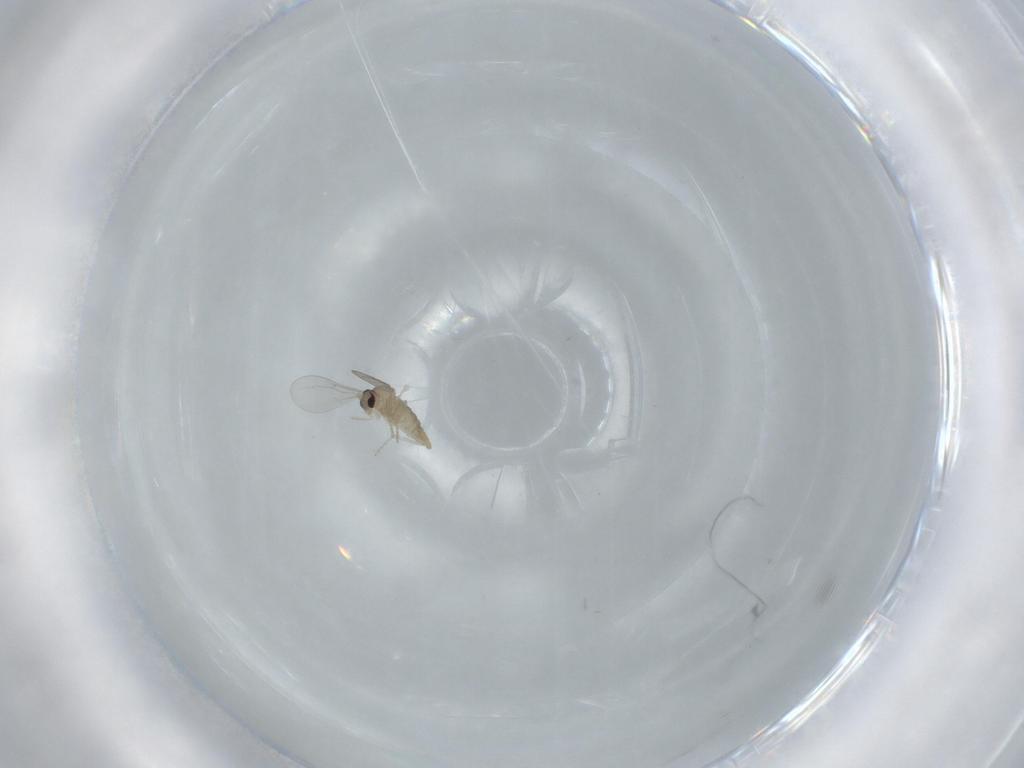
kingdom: Animalia
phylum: Arthropoda
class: Insecta
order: Diptera
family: Cecidomyiidae
